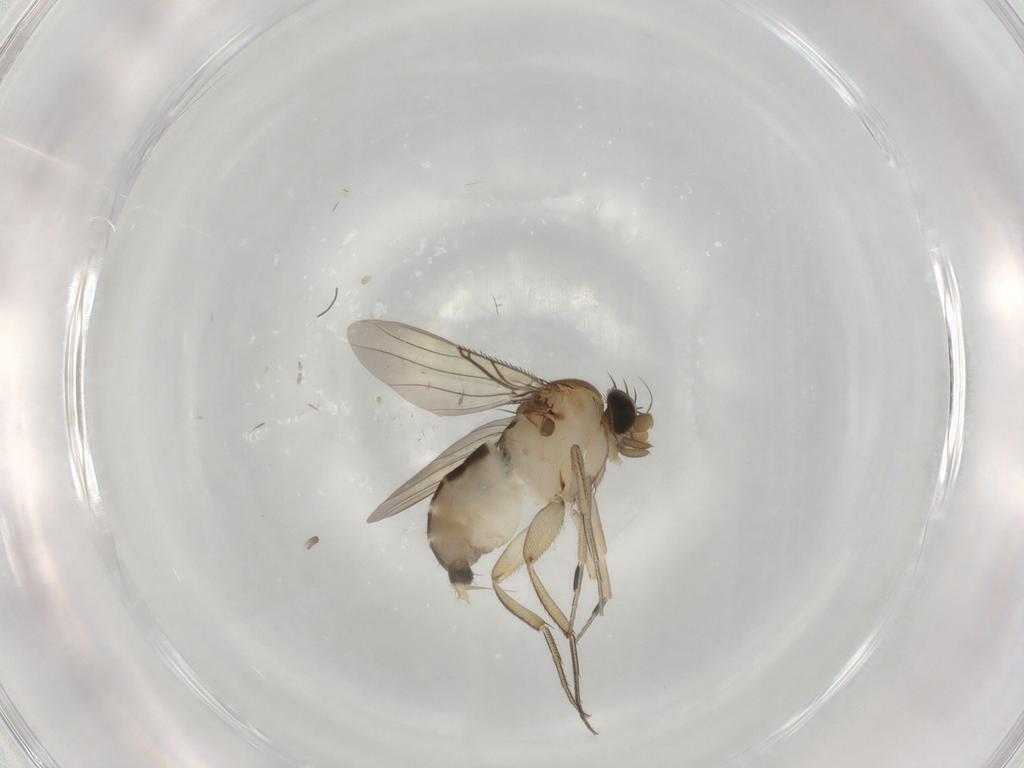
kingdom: Animalia
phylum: Arthropoda
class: Insecta
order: Diptera
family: Phoridae
